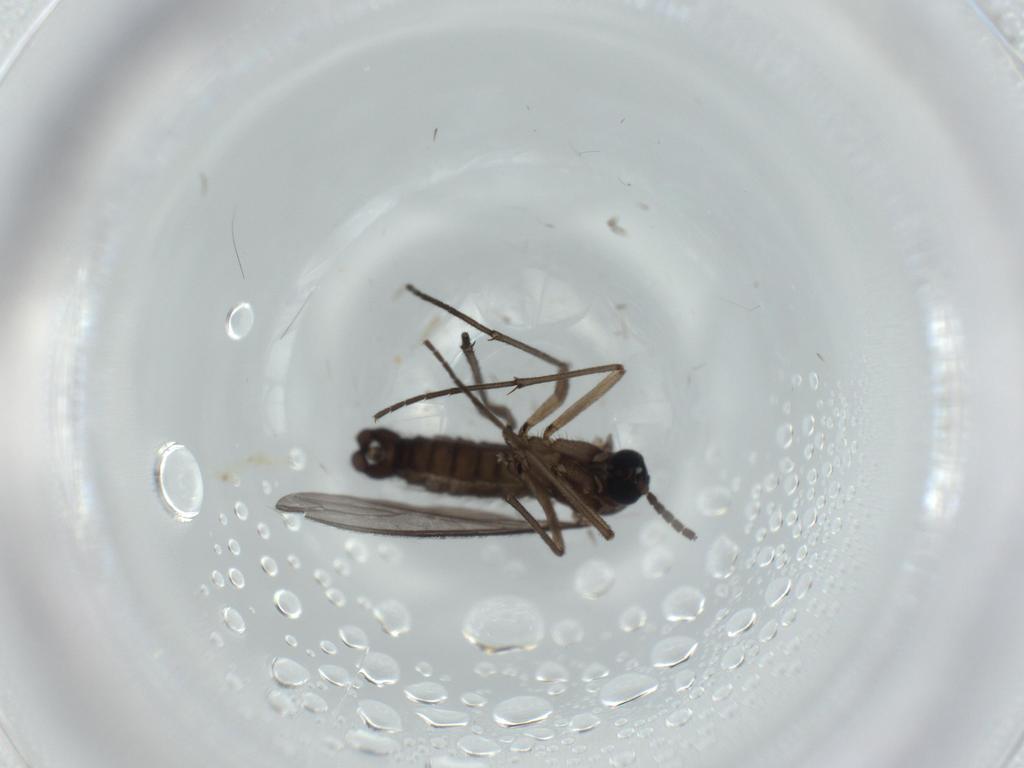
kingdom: Animalia
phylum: Arthropoda
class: Insecta
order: Diptera
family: Sciaridae
